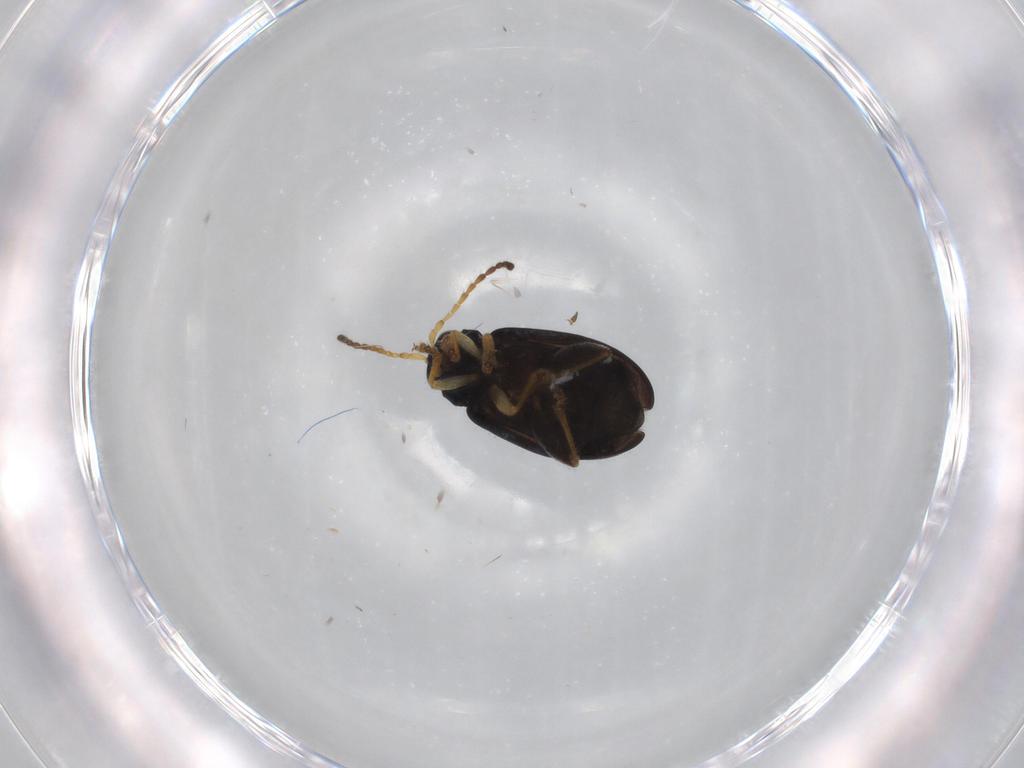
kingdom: Animalia
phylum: Arthropoda
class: Insecta
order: Coleoptera
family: Chrysomelidae
